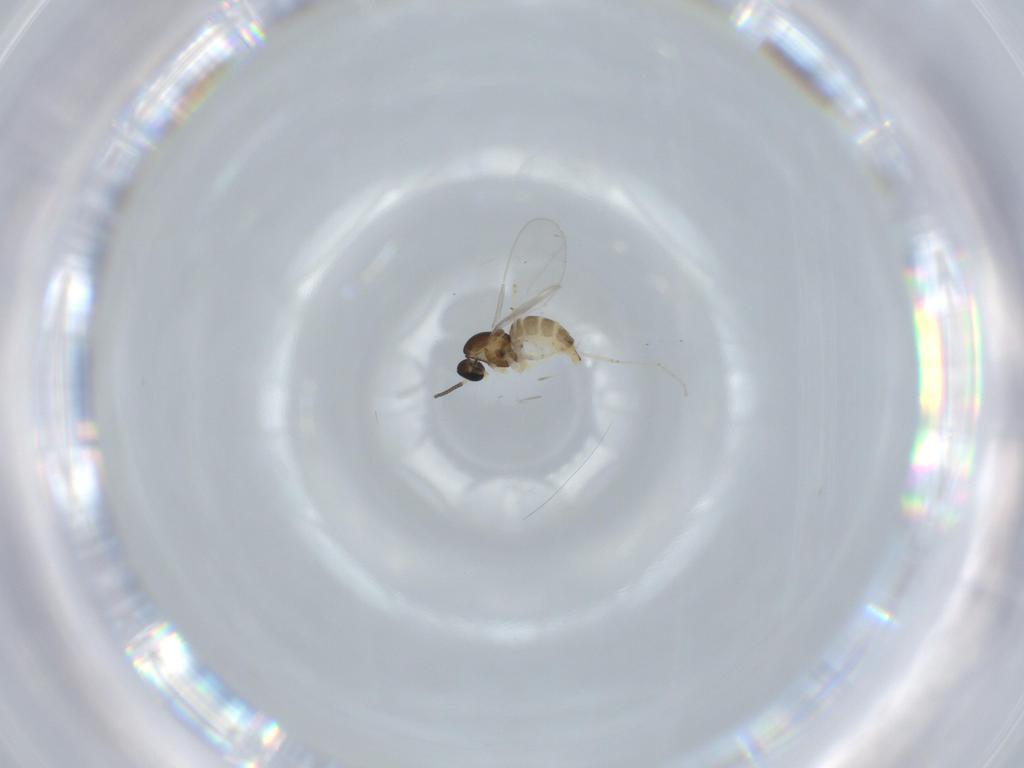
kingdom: Animalia
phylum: Arthropoda
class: Insecta
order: Diptera
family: Cecidomyiidae
